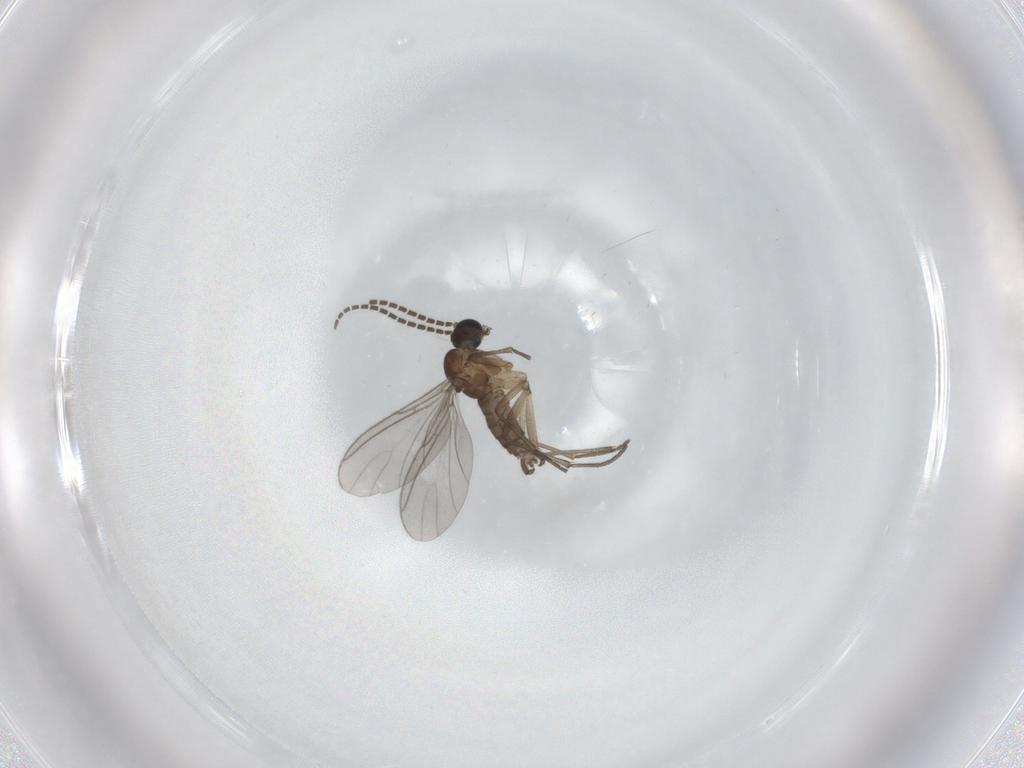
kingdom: Animalia
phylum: Arthropoda
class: Insecta
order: Diptera
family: Sciaridae
